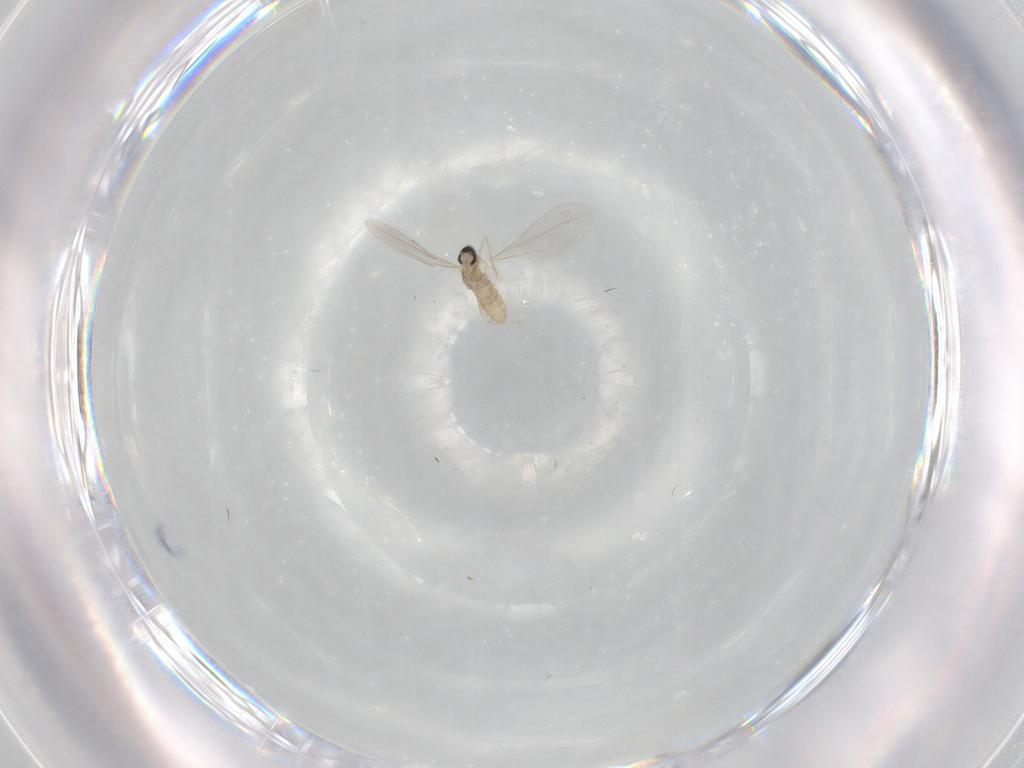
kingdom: Animalia
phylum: Arthropoda
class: Insecta
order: Diptera
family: Cecidomyiidae
